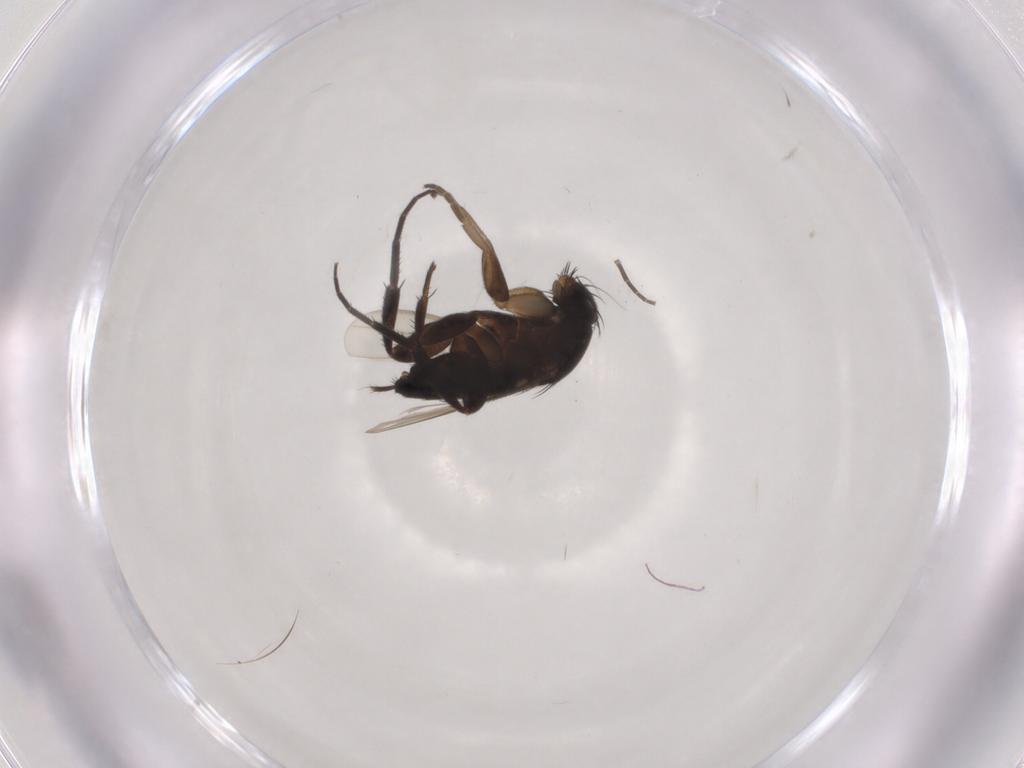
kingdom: Animalia
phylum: Arthropoda
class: Insecta
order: Diptera
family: Phoridae
